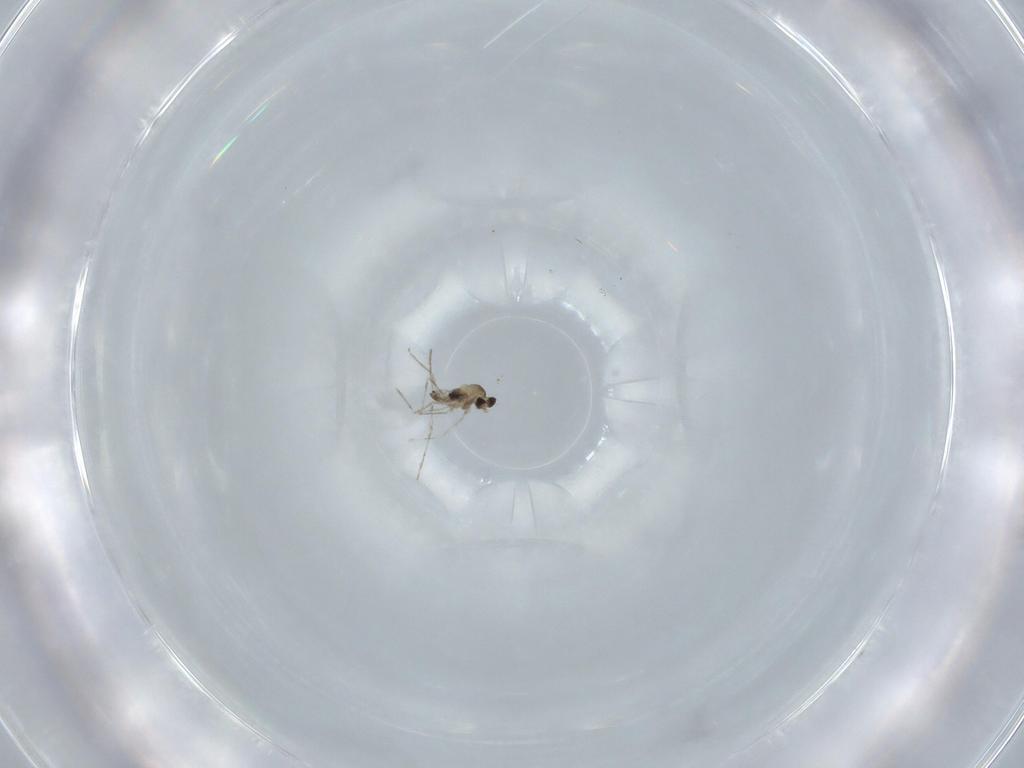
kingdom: Animalia
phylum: Arthropoda
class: Insecta
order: Diptera
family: Cecidomyiidae
